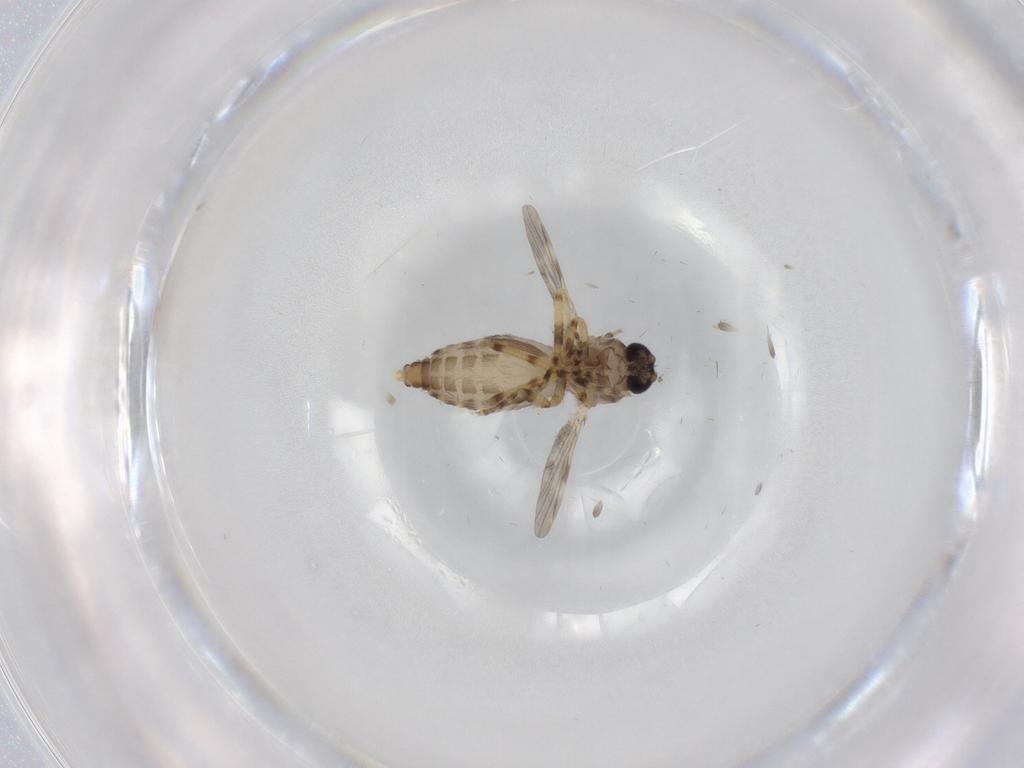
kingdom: Animalia
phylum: Arthropoda
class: Insecta
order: Diptera
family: Ceratopogonidae
